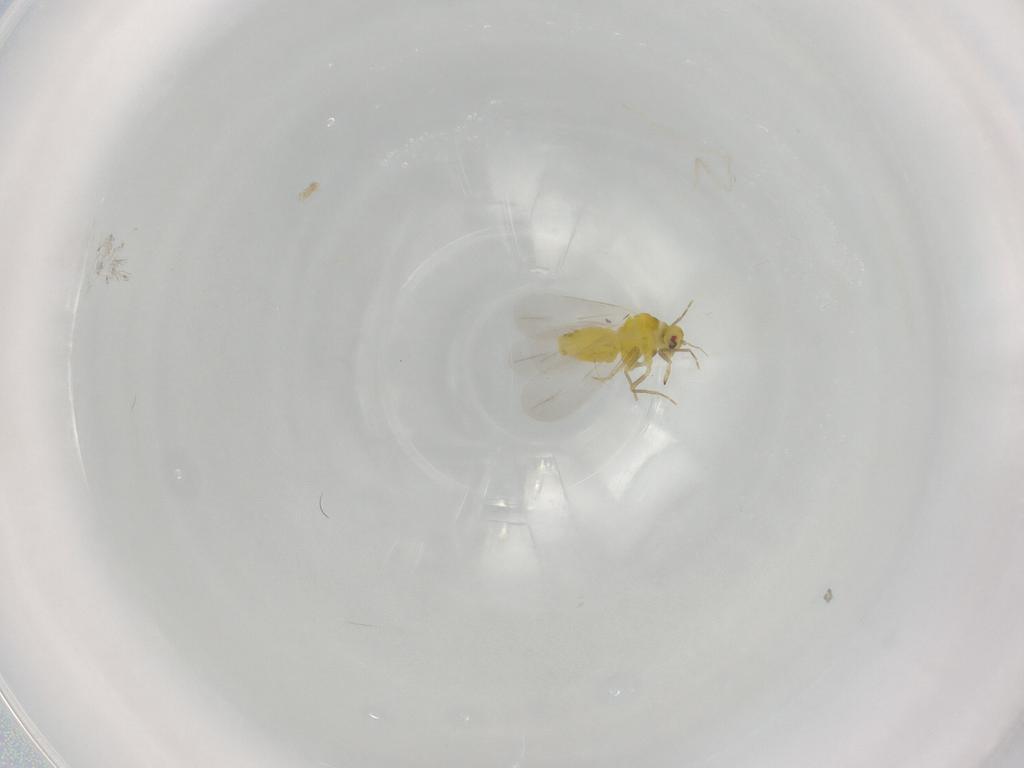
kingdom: Animalia
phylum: Arthropoda
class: Insecta
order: Hemiptera
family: Aleyrodidae
